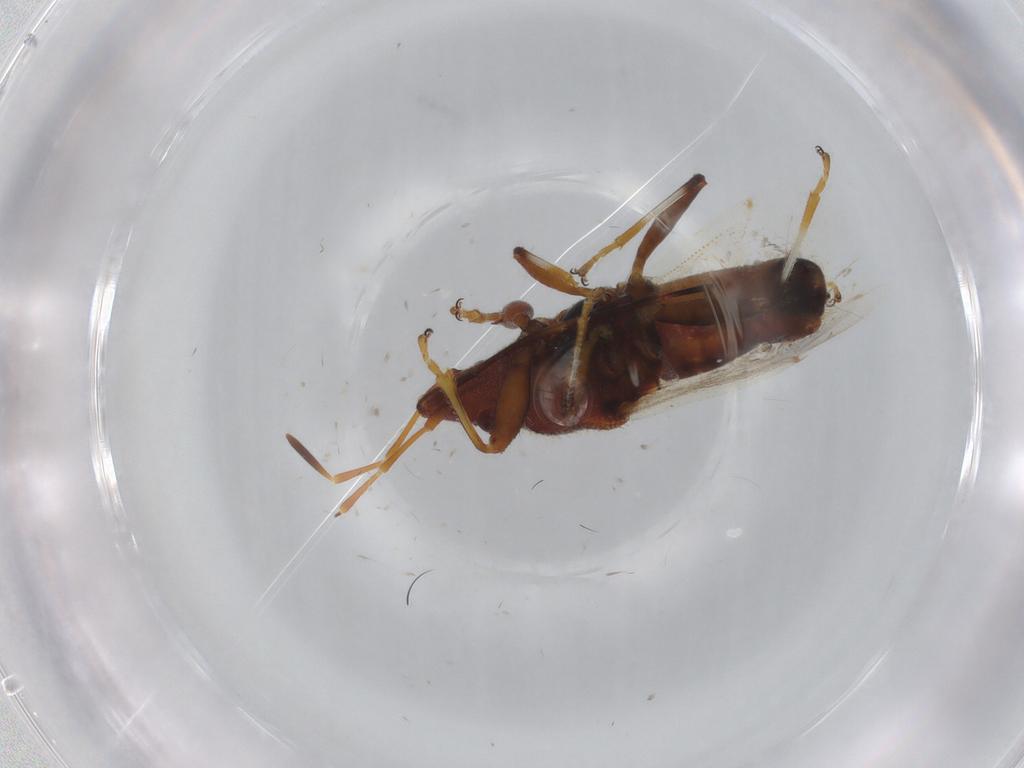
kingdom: Animalia
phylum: Arthropoda
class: Insecta
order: Hemiptera
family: Oxycarenidae
